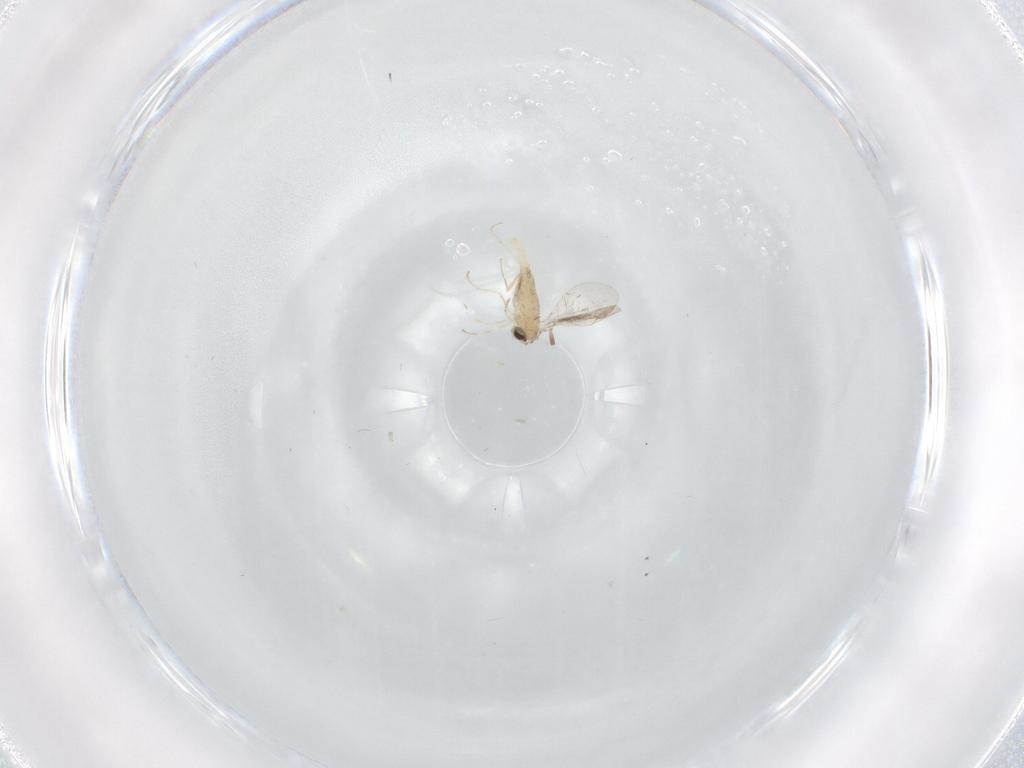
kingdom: Animalia
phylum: Arthropoda
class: Insecta
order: Diptera
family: Cecidomyiidae
